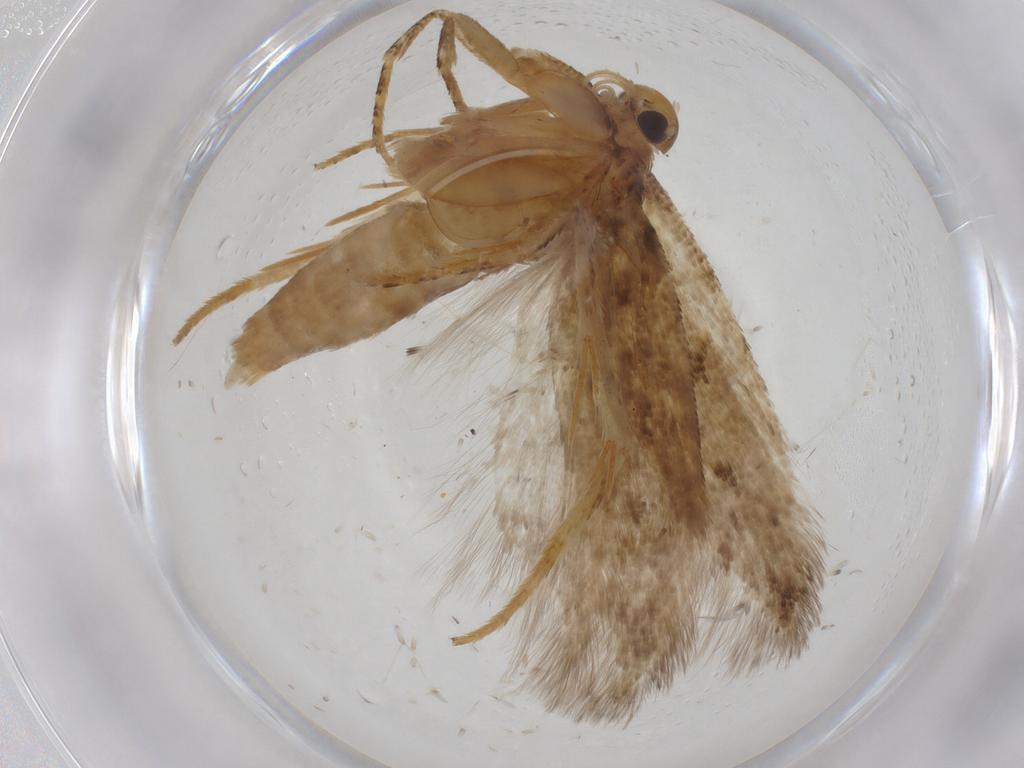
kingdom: Animalia
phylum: Arthropoda
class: Insecta
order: Lepidoptera
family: Gelechiidae
